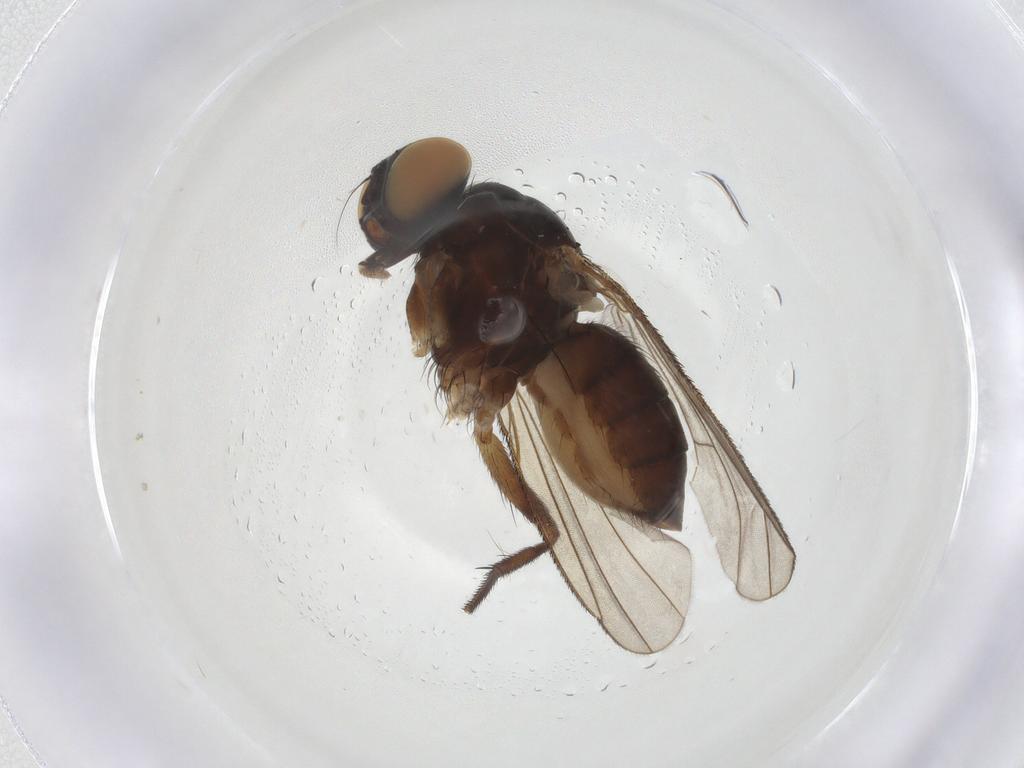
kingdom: Animalia
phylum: Arthropoda
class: Insecta
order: Diptera
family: Muscidae
